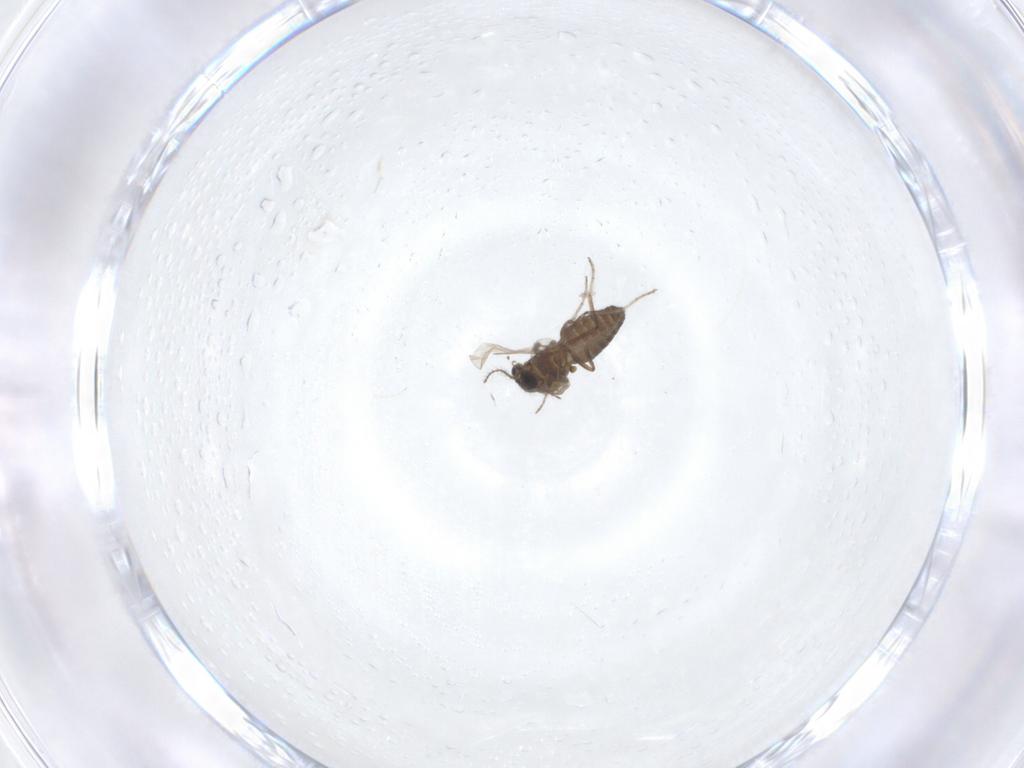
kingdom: Animalia
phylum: Arthropoda
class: Insecta
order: Diptera
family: Ceratopogonidae
